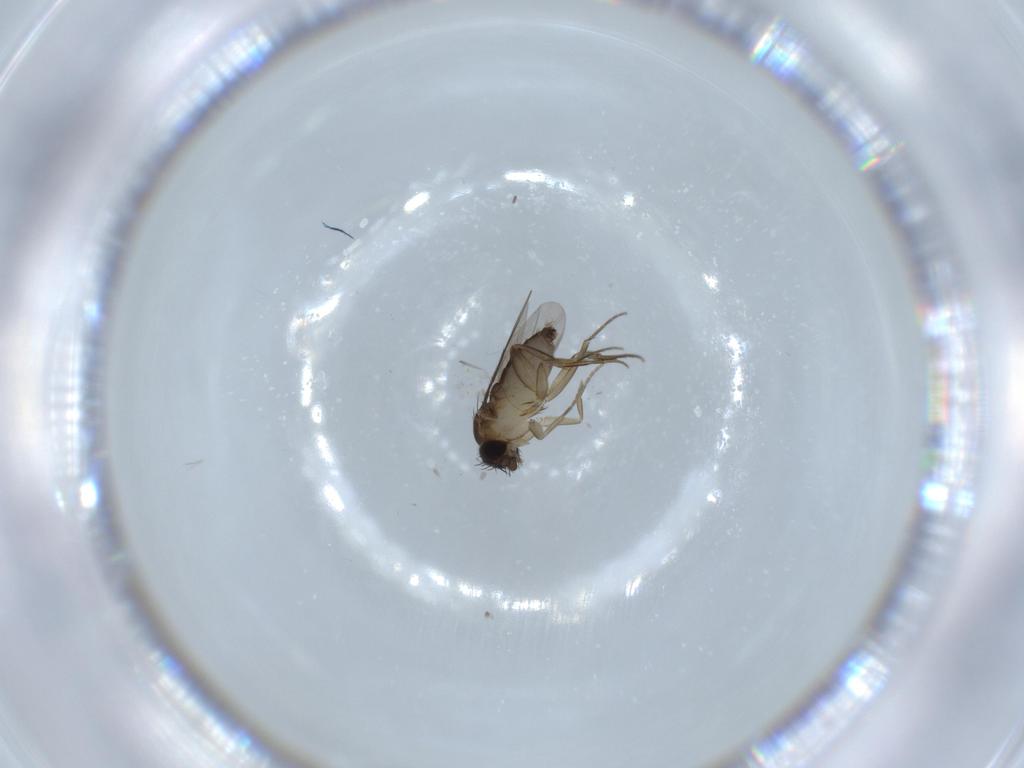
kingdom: Animalia
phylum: Arthropoda
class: Insecta
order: Diptera
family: Phoridae
